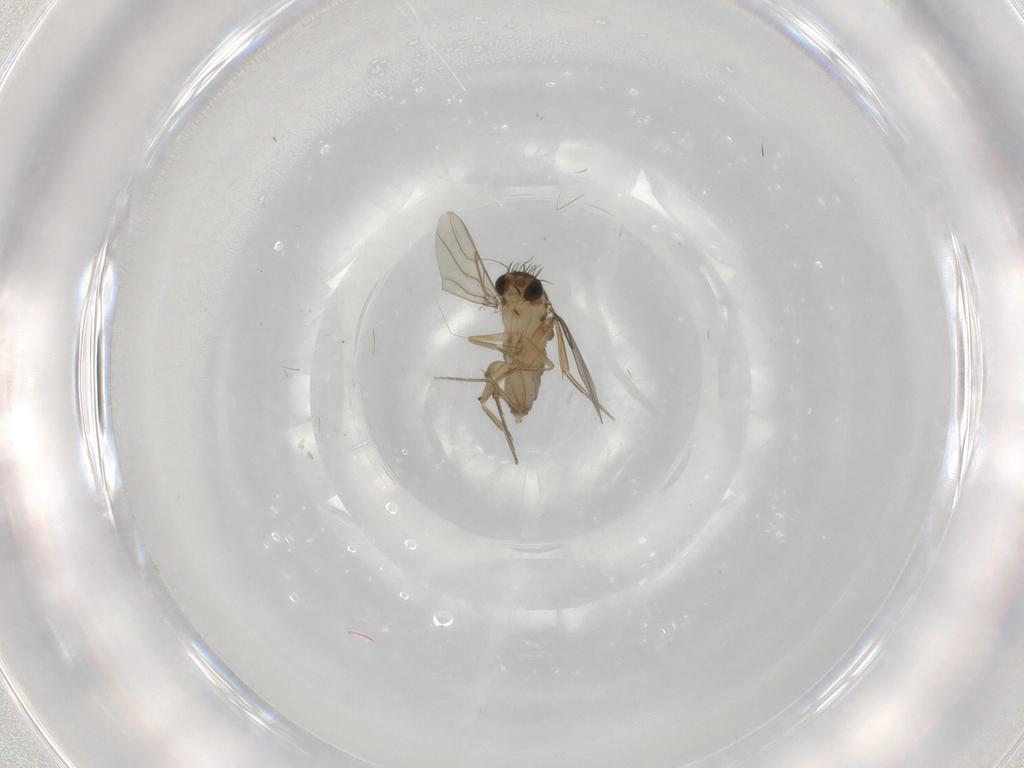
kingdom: Animalia
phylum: Arthropoda
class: Insecta
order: Diptera
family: Phoridae
